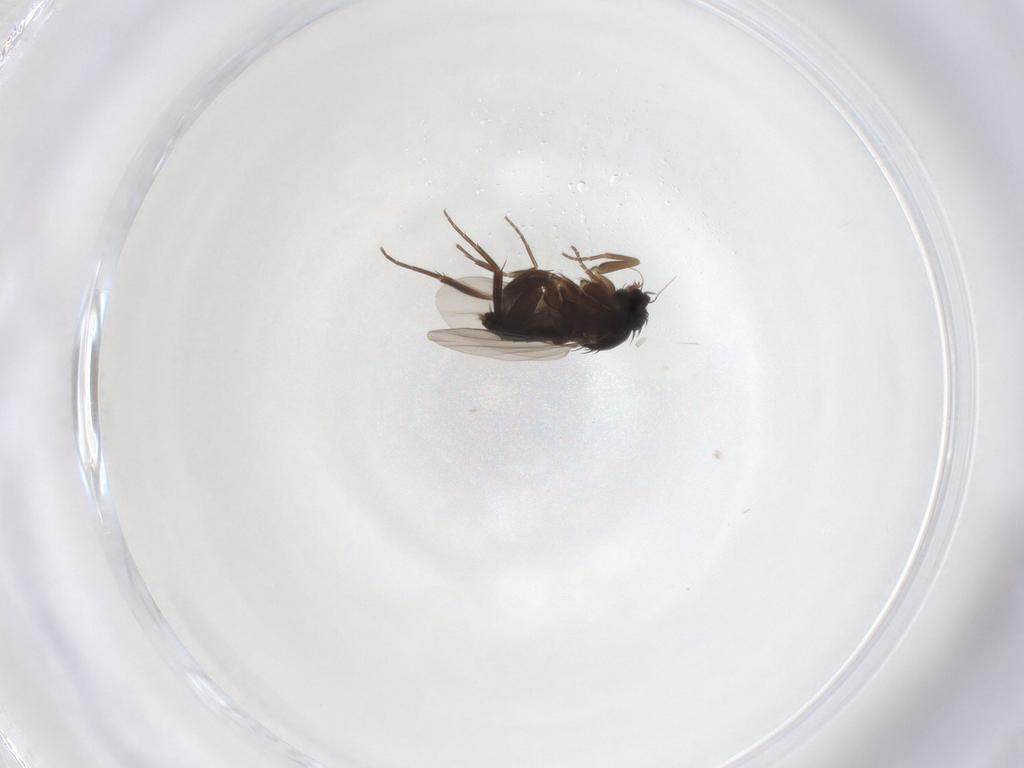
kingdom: Animalia
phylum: Arthropoda
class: Insecta
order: Diptera
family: Phoridae
